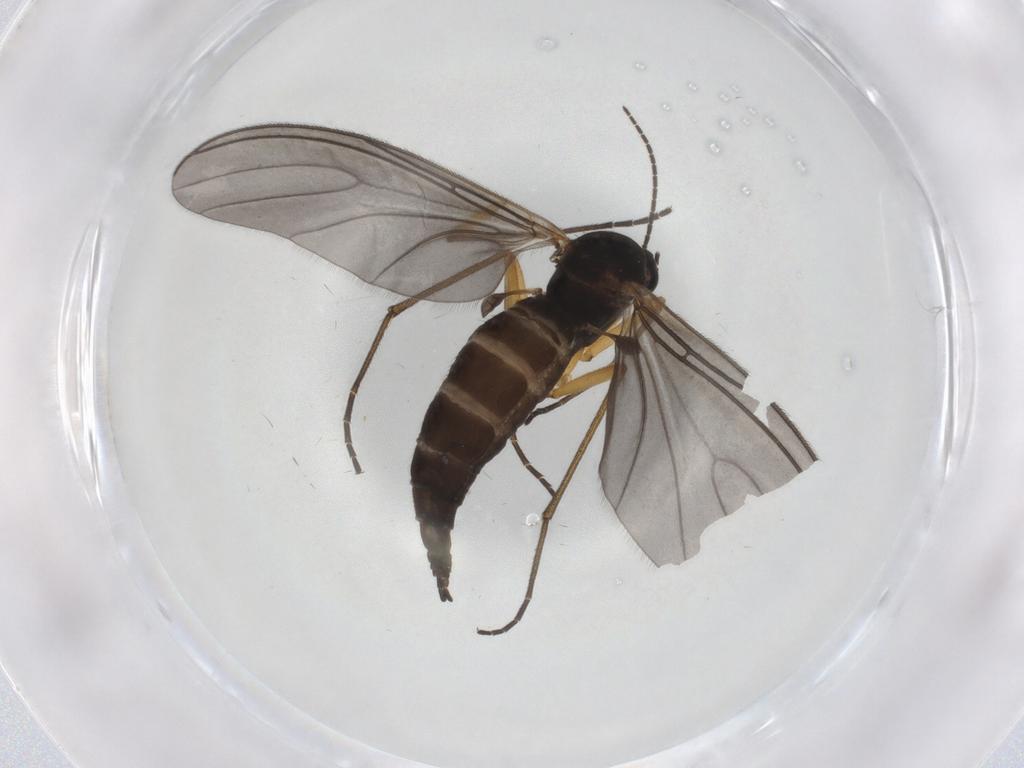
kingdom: Animalia
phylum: Arthropoda
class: Insecta
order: Diptera
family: Sciaridae
